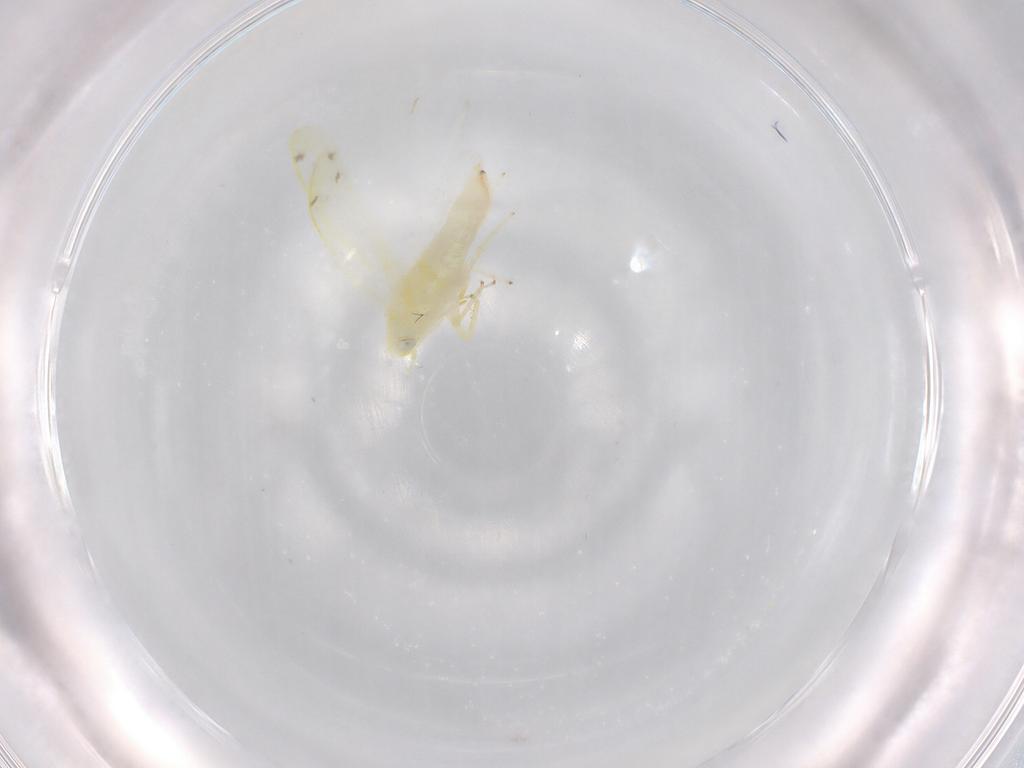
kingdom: Animalia
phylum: Arthropoda
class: Insecta
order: Hemiptera
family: Cicadellidae
